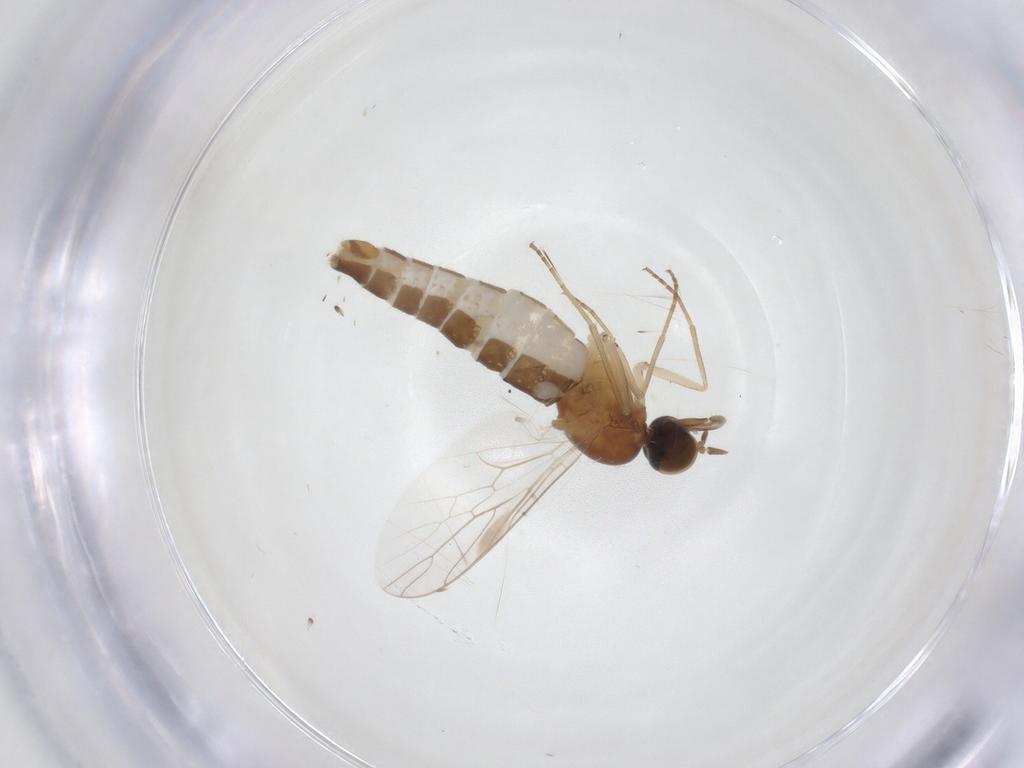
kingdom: Animalia
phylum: Arthropoda
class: Insecta
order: Diptera
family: Scenopinidae
